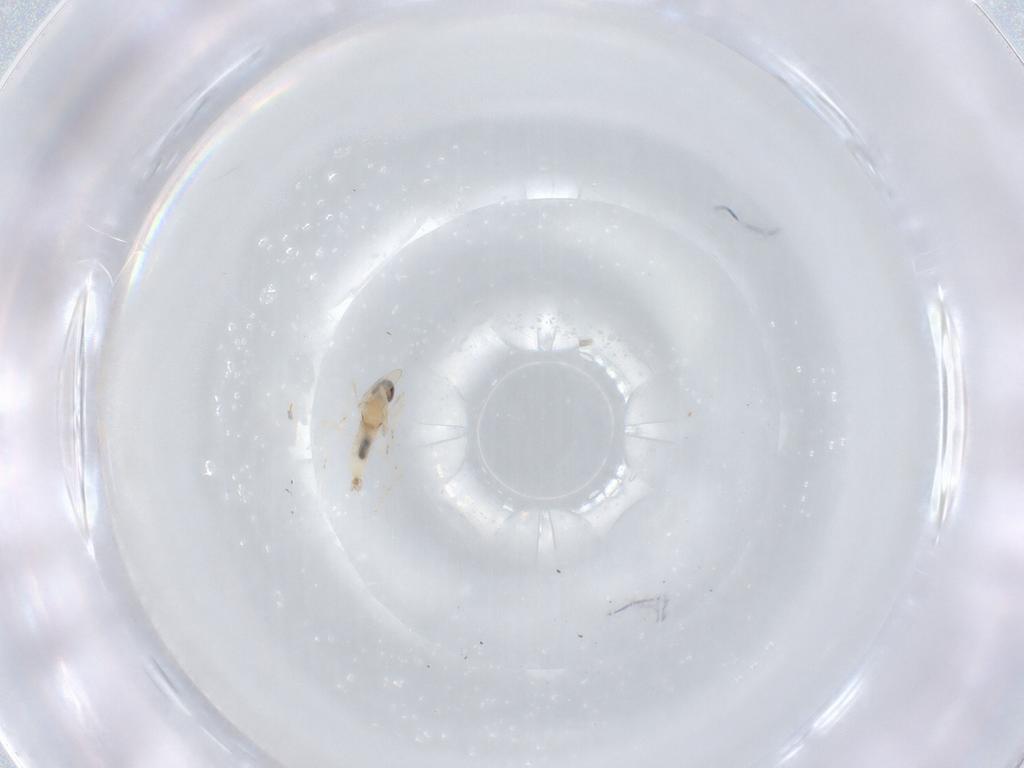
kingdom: Animalia
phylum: Arthropoda
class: Insecta
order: Diptera
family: Cecidomyiidae
